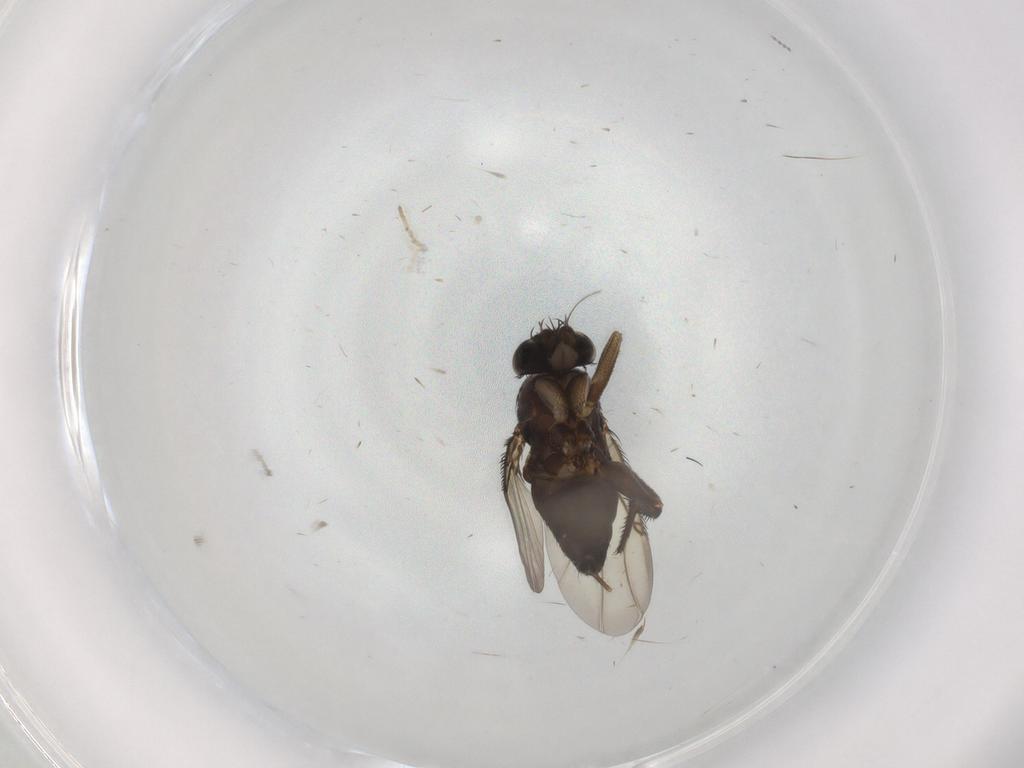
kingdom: Animalia
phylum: Arthropoda
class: Insecta
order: Diptera
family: Phoridae
